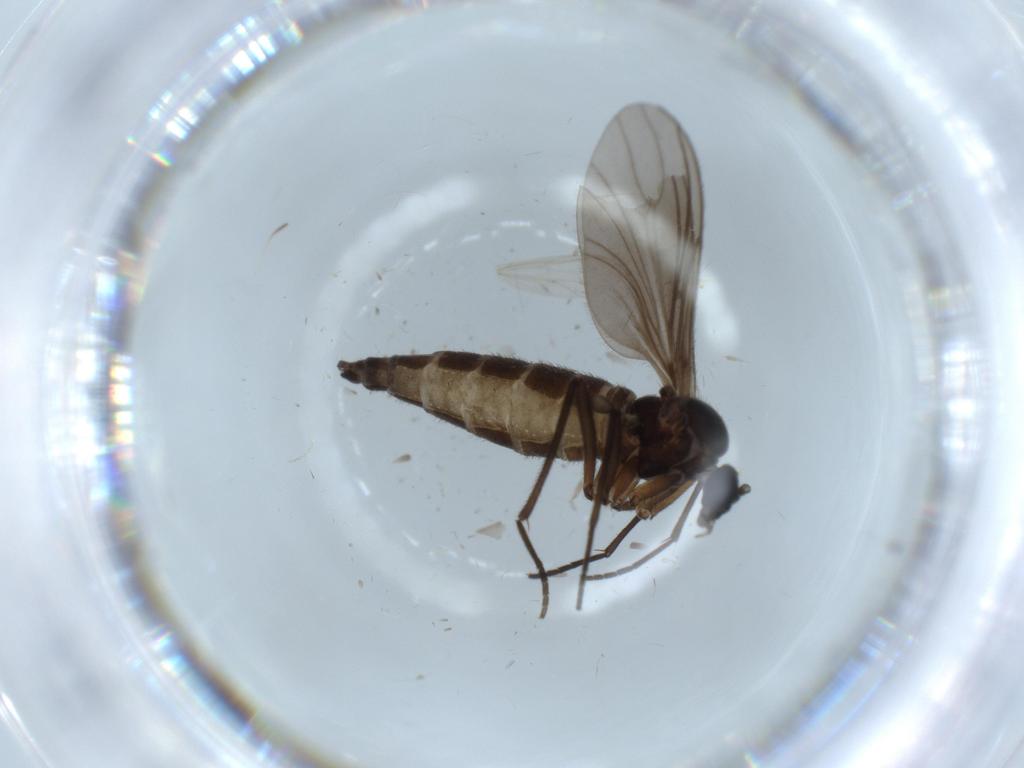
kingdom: Animalia
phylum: Arthropoda
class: Insecta
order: Diptera
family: Sciaridae
